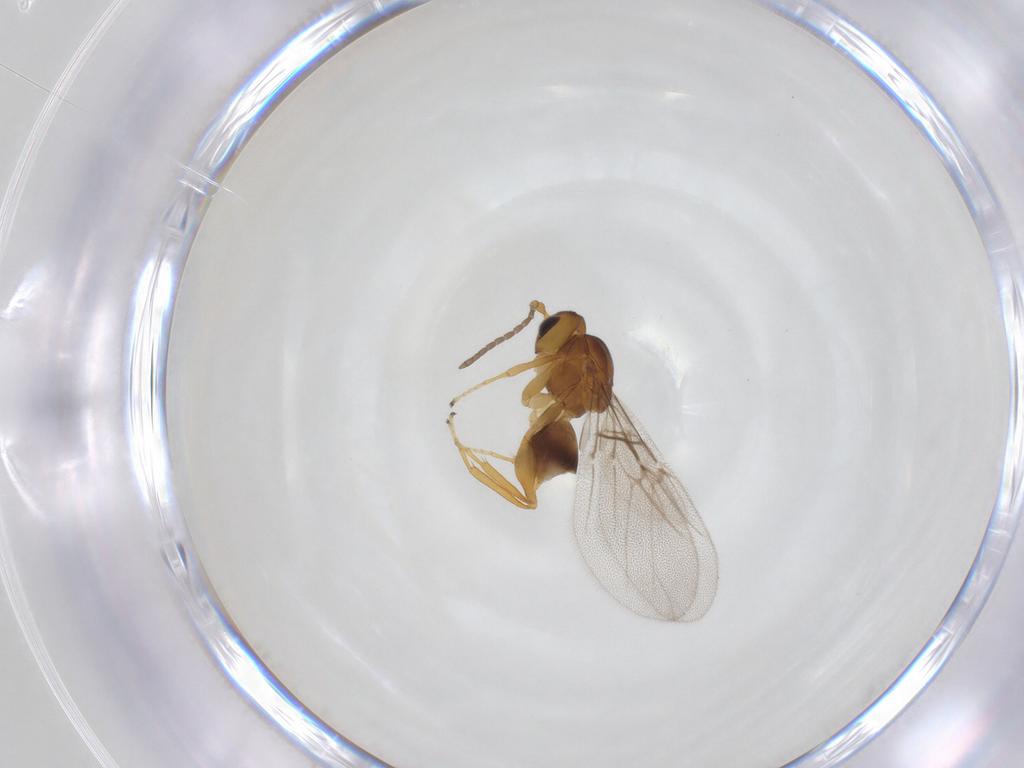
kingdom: Animalia
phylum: Arthropoda
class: Insecta
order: Hymenoptera
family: Cynipidae
